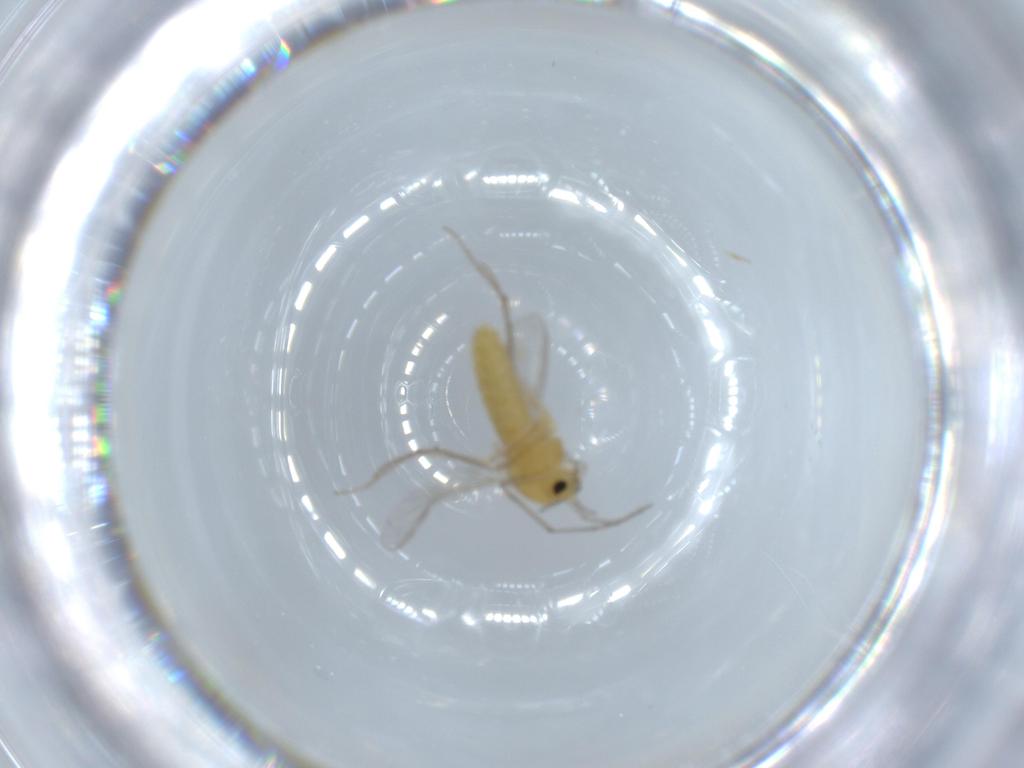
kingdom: Animalia
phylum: Arthropoda
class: Insecta
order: Diptera
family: Chironomidae
